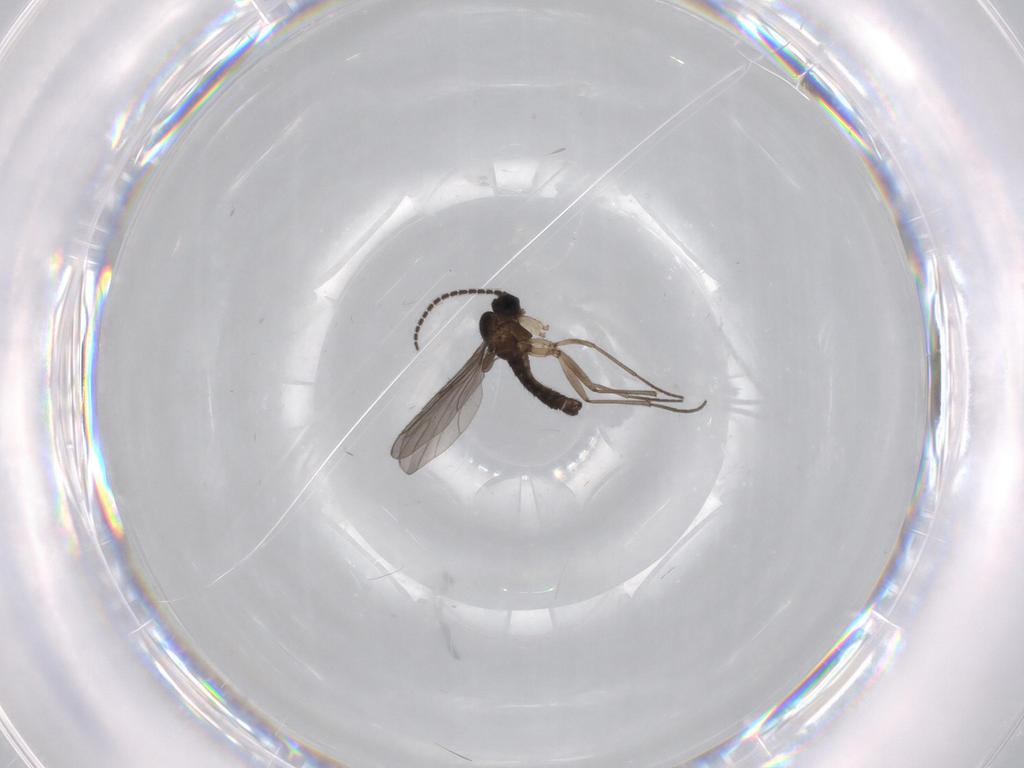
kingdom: Animalia
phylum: Arthropoda
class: Insecta
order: Diptera
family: Sciaridae
